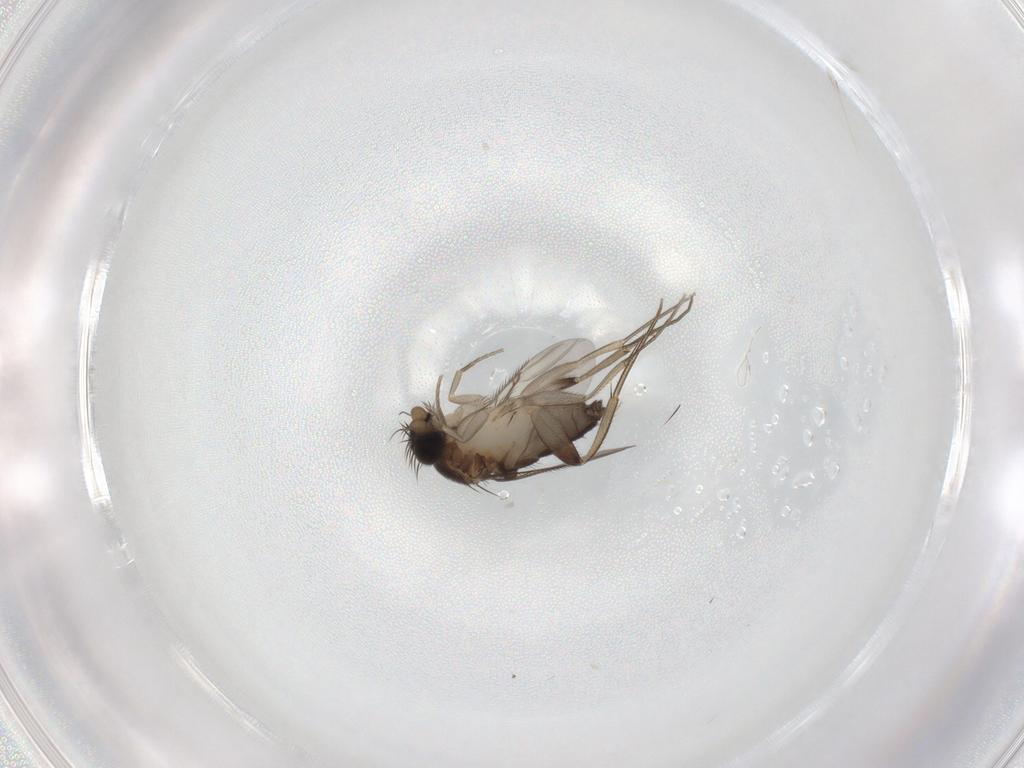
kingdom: Animalia
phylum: Arthropoda
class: Insecta
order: Diptera
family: Phoridae
